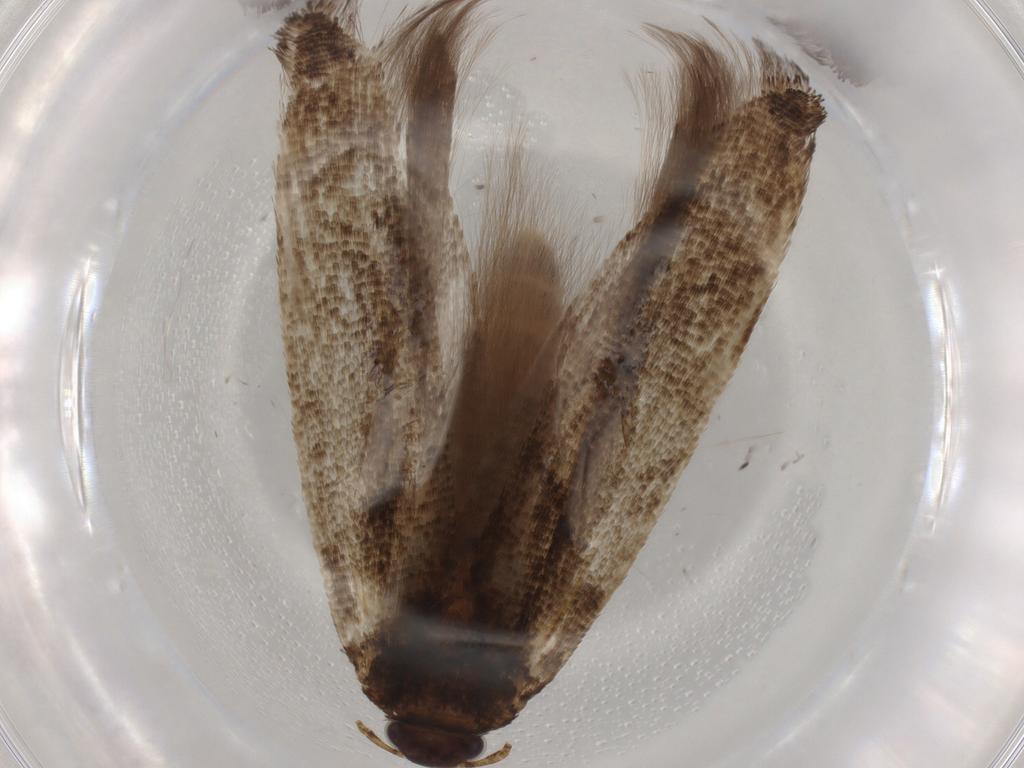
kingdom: Animalia
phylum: Arthropoda
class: Insecta
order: Lepidoptera
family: Gelechiidae
